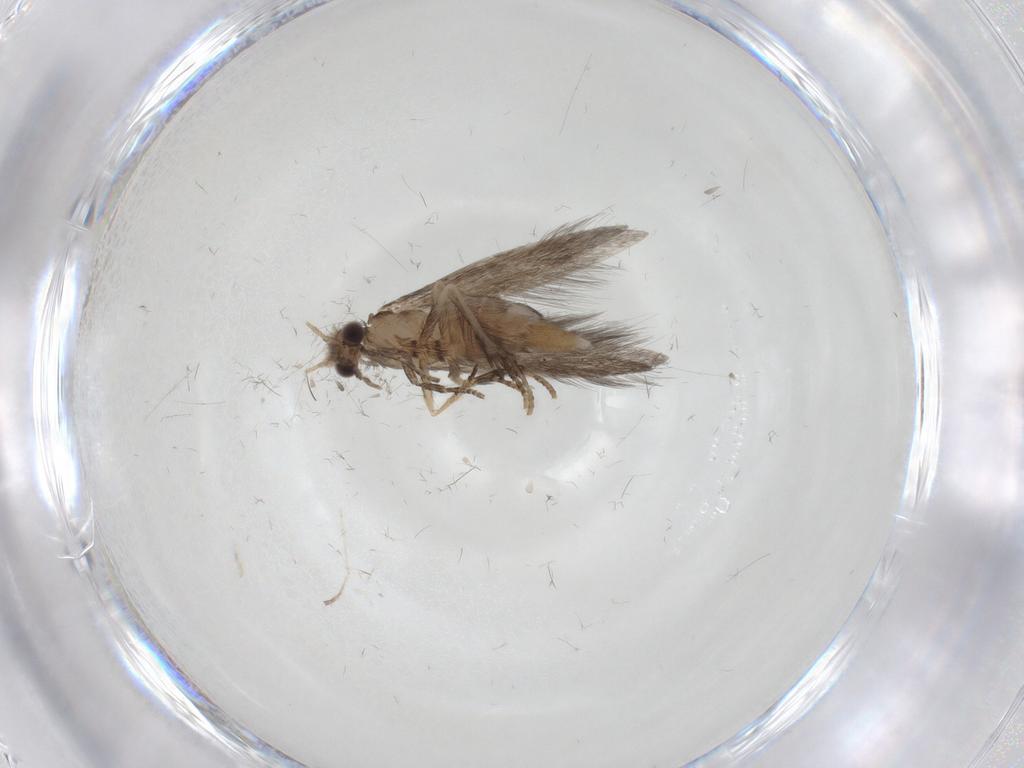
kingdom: Animalia
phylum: Arthropoda
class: Insecta
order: Trichoptera
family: Hydroptilidae
